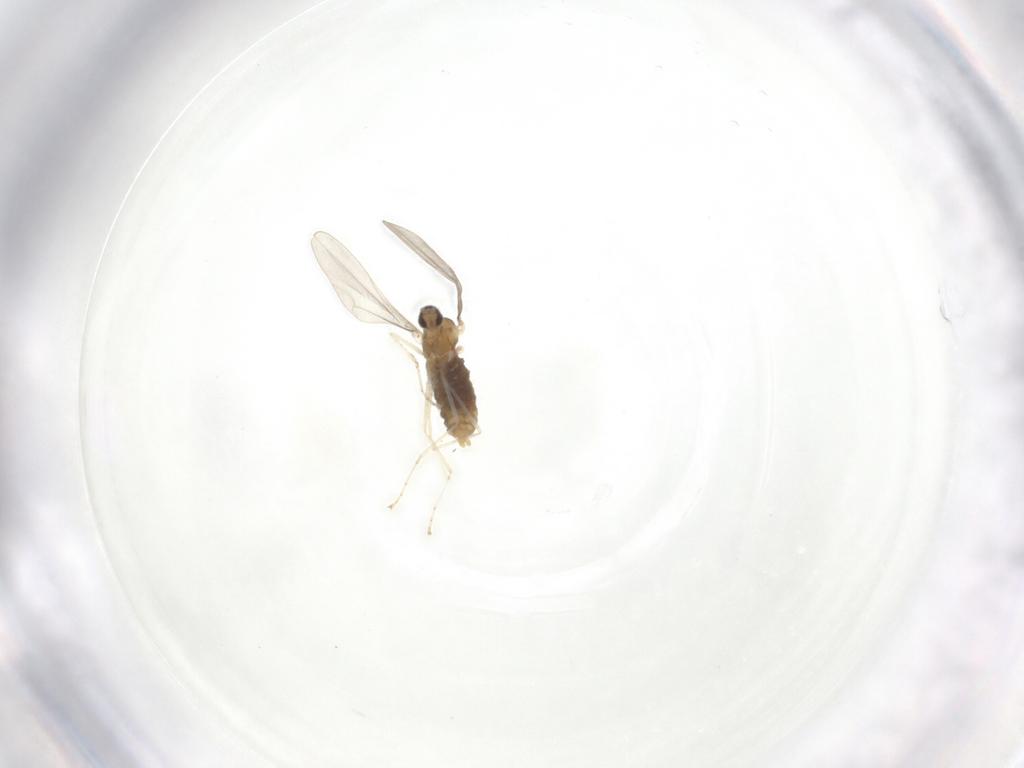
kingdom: Animalia
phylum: Arthropoda
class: Arachnida
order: Araneae
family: Agelenidae
